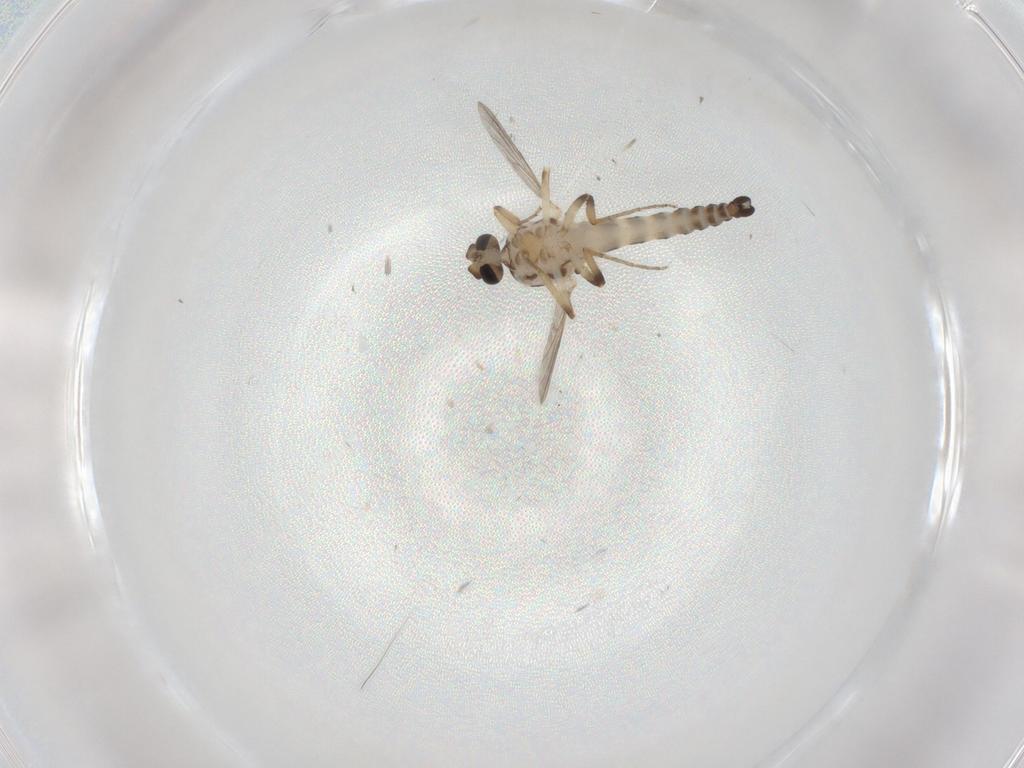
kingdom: Animalia
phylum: Arthropoda
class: Insecta
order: Diptera
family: Ceratopogonidae
